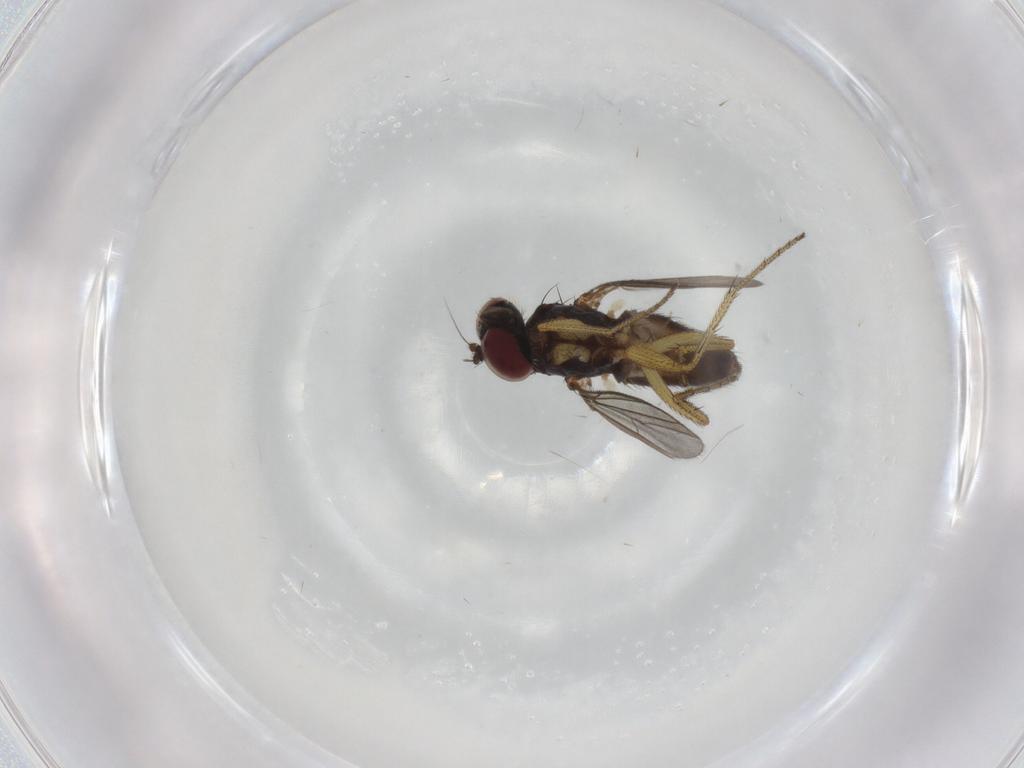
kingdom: Animalia
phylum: Arthropoda
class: Insecta
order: Diptera
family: Dolichopodidae
